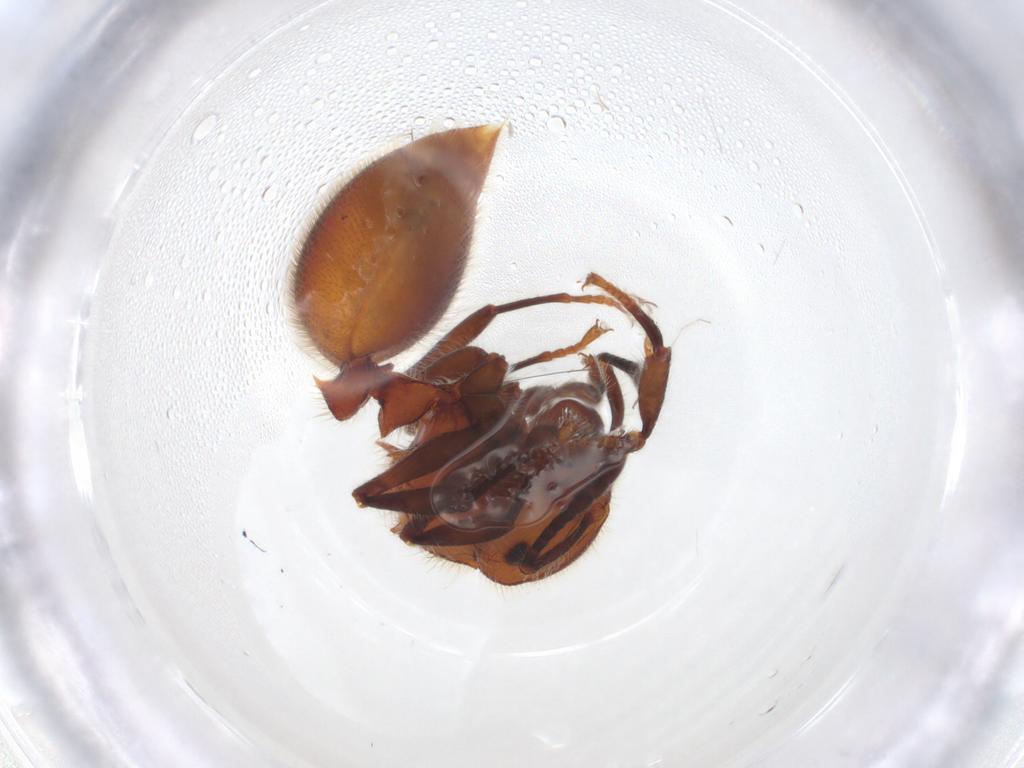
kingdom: Animalia
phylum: Arthropoda
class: Insecta
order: Hymenoptera
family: Formicidae
